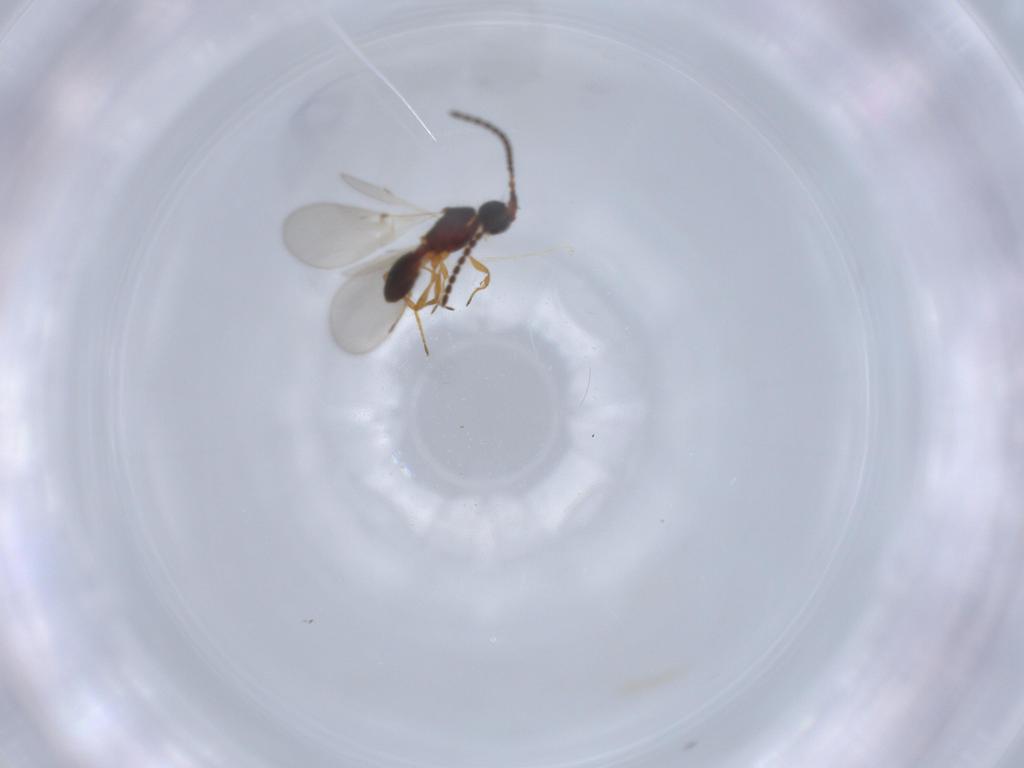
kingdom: Animalia
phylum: Arthropoda
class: Insecta
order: Hymenoptera
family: Diapriidae
